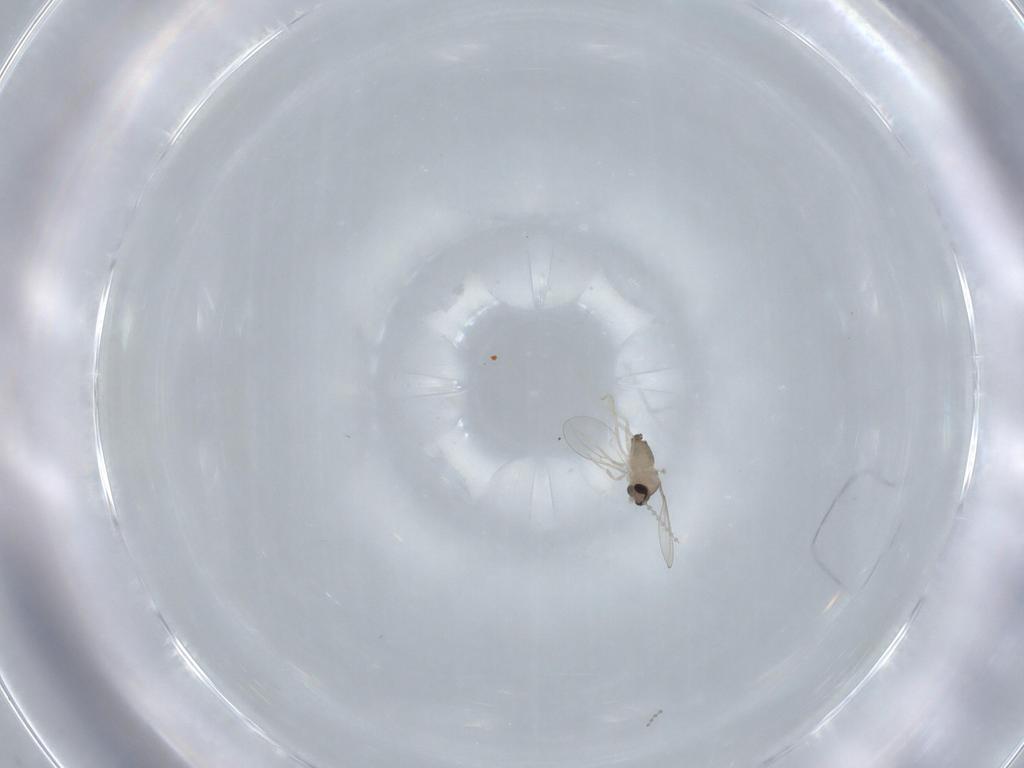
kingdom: Animalia
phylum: Arthropoda
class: Insecta
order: Diptera
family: Cecidomyiidae
